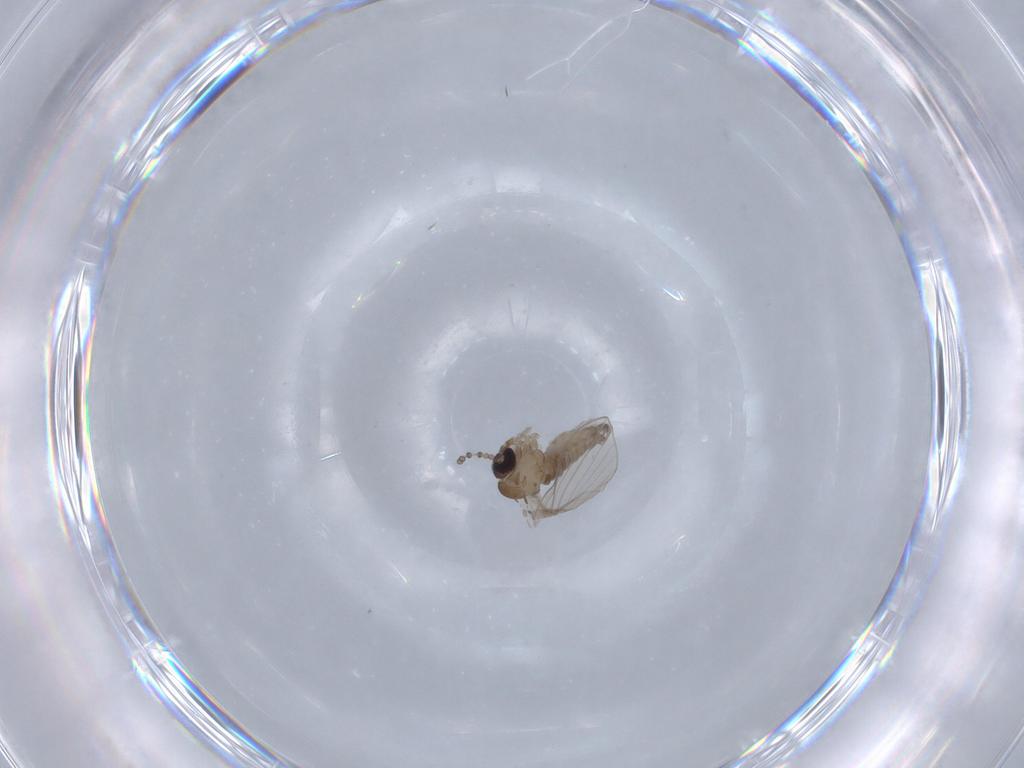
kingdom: Animalia
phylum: Arthropoda
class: Insecta
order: Diptera
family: Psychodidae
